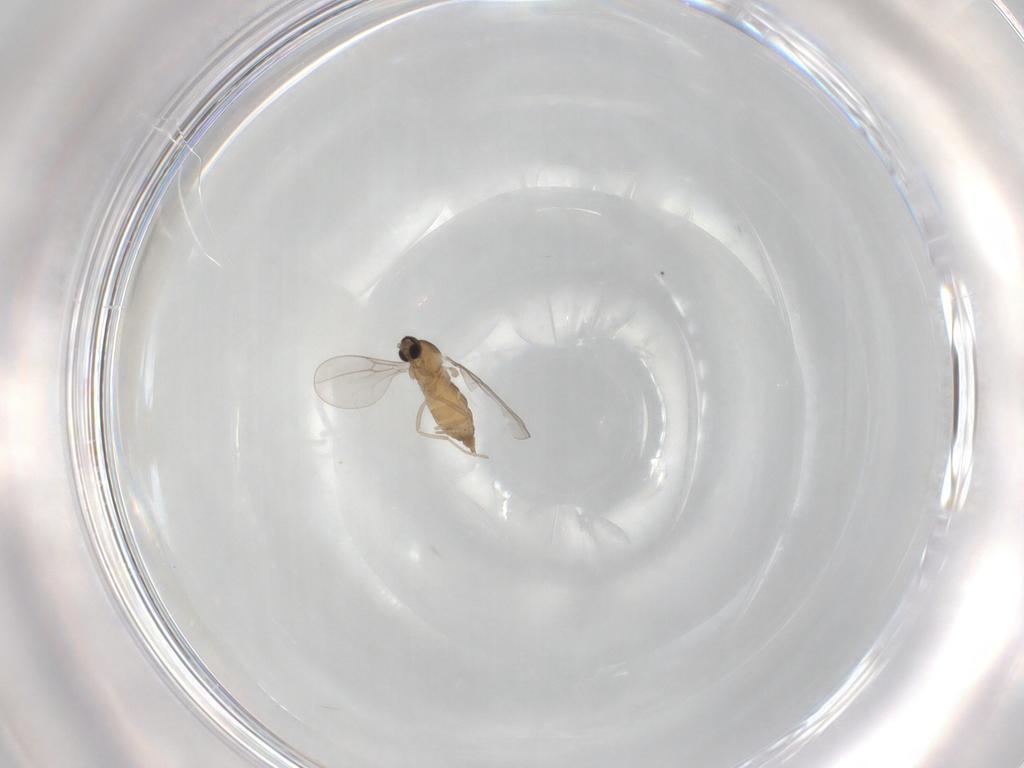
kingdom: Animalia
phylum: Arthropoda
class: Insecta
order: Diptera
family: Cecidomyiidae
